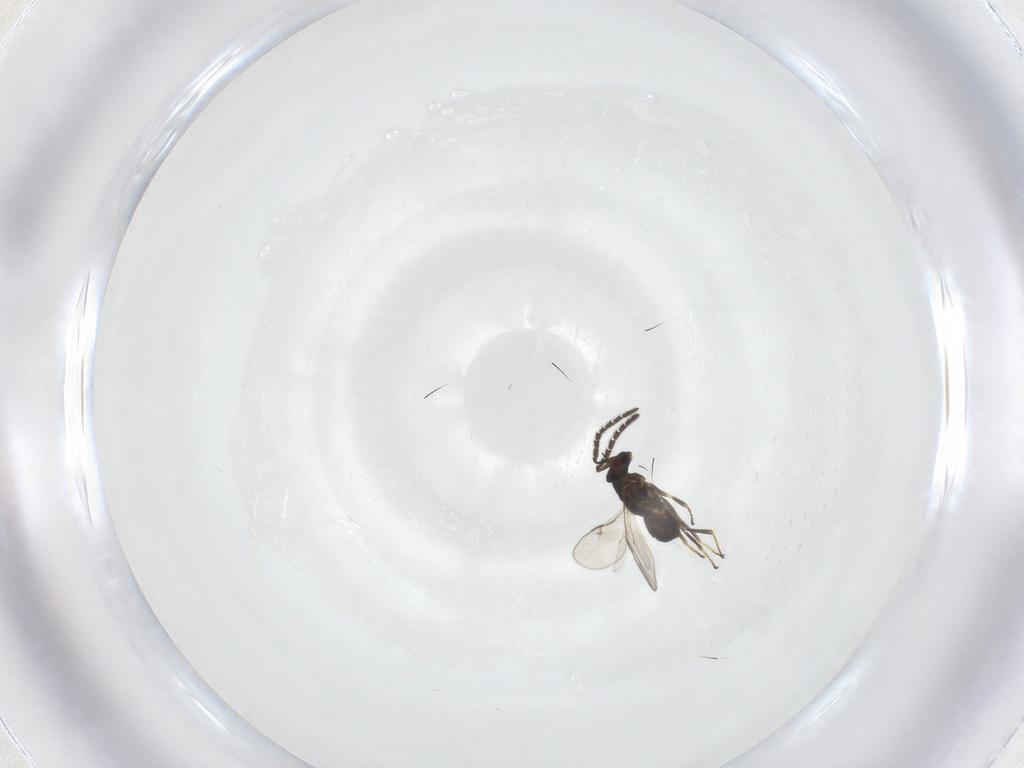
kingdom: Animalia
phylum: Arthropoda
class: Insecta
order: Hymenoptera
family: Encyrtidae
